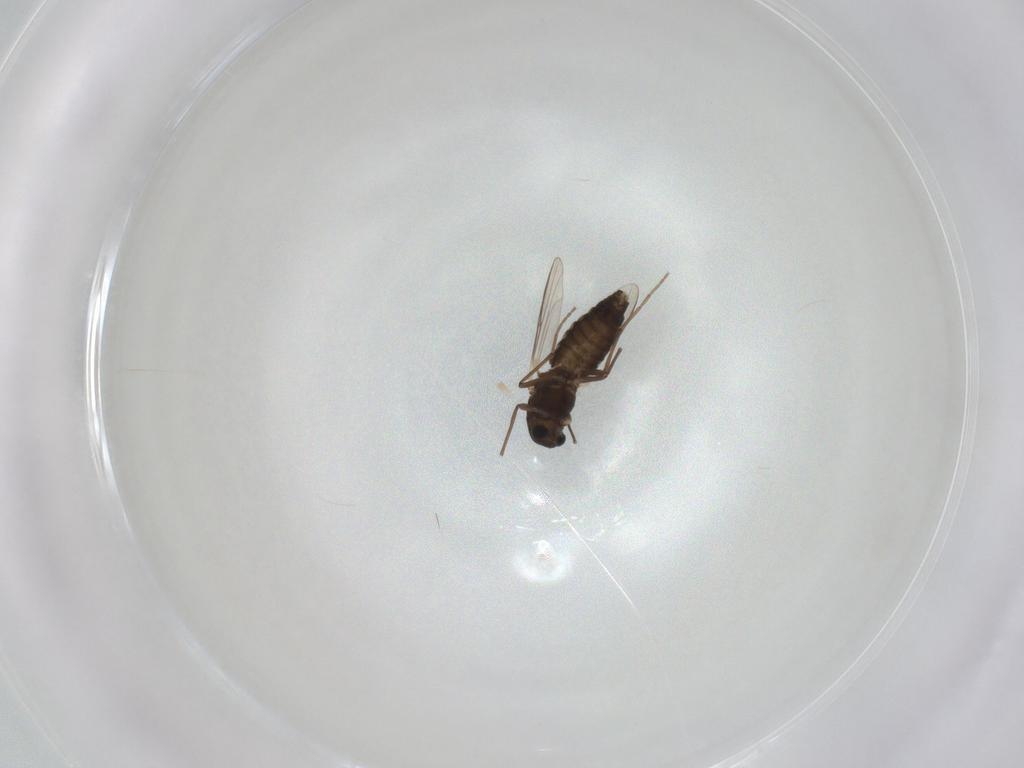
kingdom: Animalia
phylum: Arthropoda
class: Insecta
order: Diptera
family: Chironomidae
